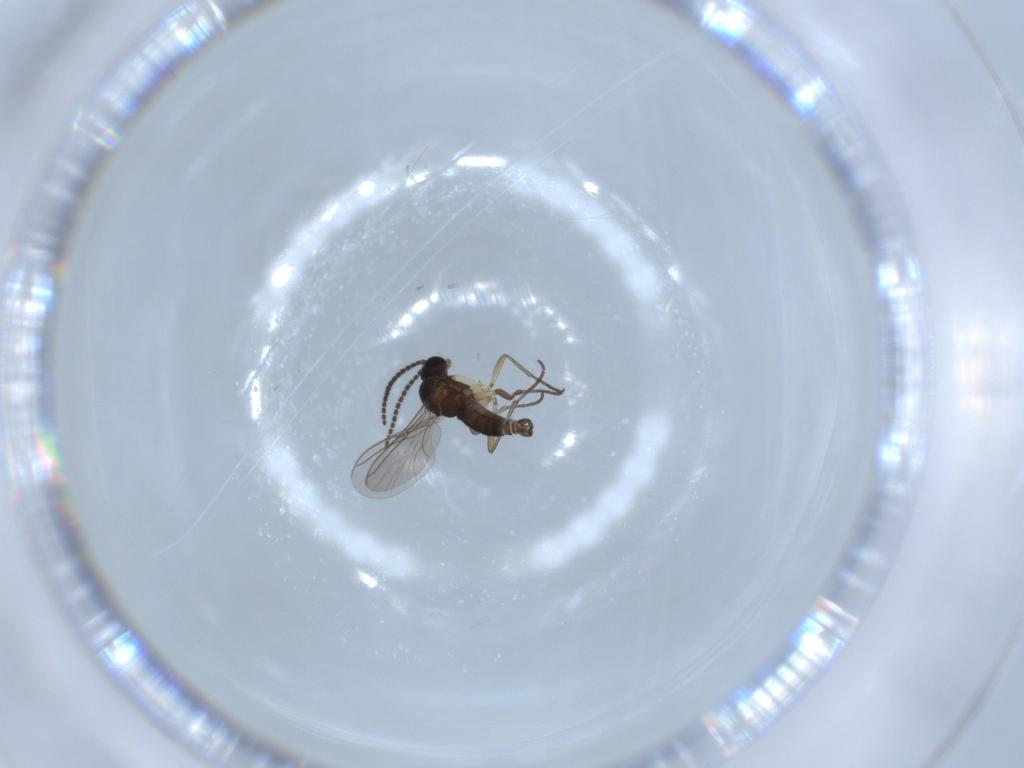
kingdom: Animalia
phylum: Arthropoda
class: Insecta
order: Diptera
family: Sciaridae
